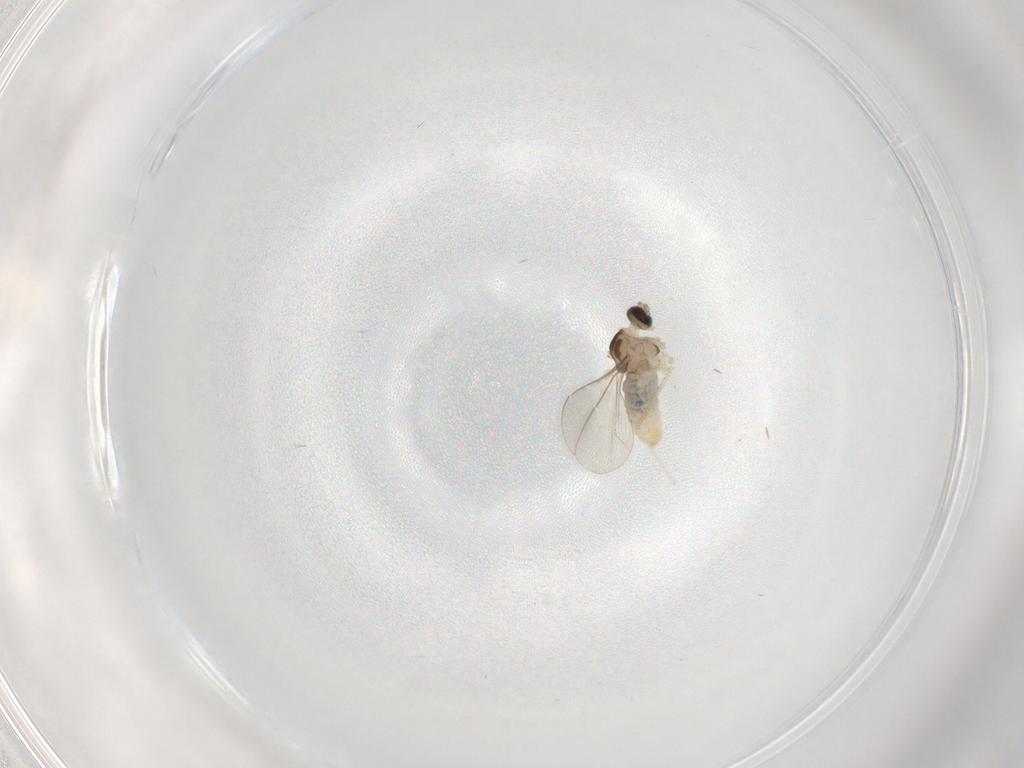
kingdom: Animalia
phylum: Arthropoda
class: Insecta
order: Diptera
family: Cecidomyiidae
